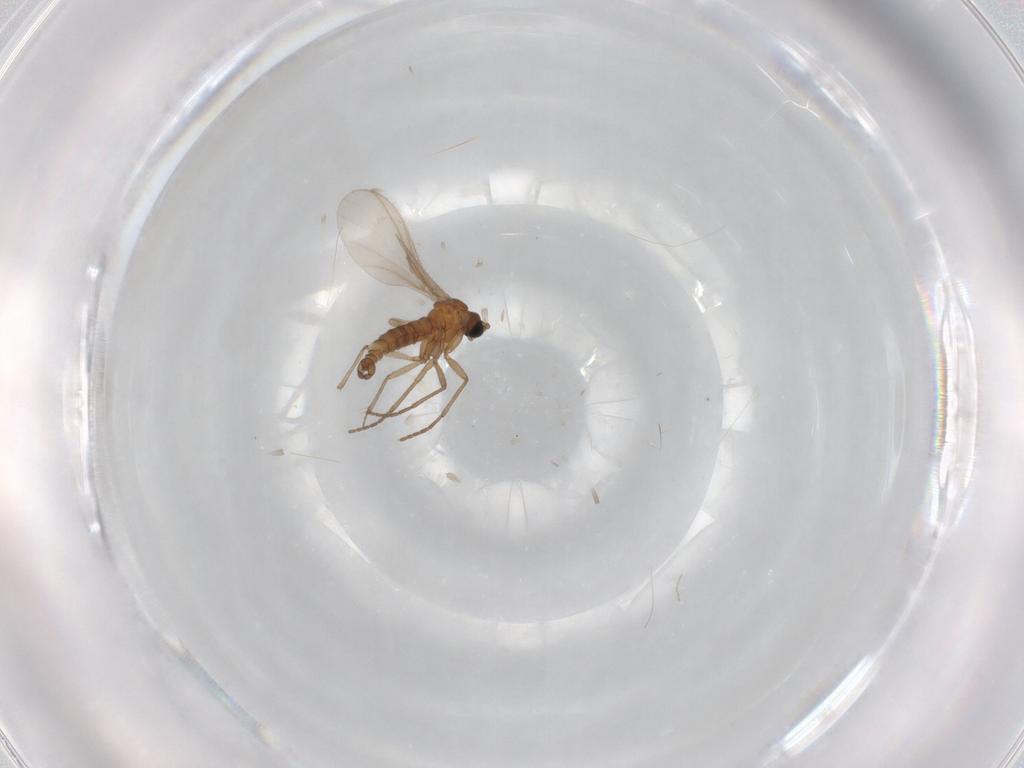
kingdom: Animalia
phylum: Arthropoda
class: Insecta
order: Diptera
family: Sciaridae
